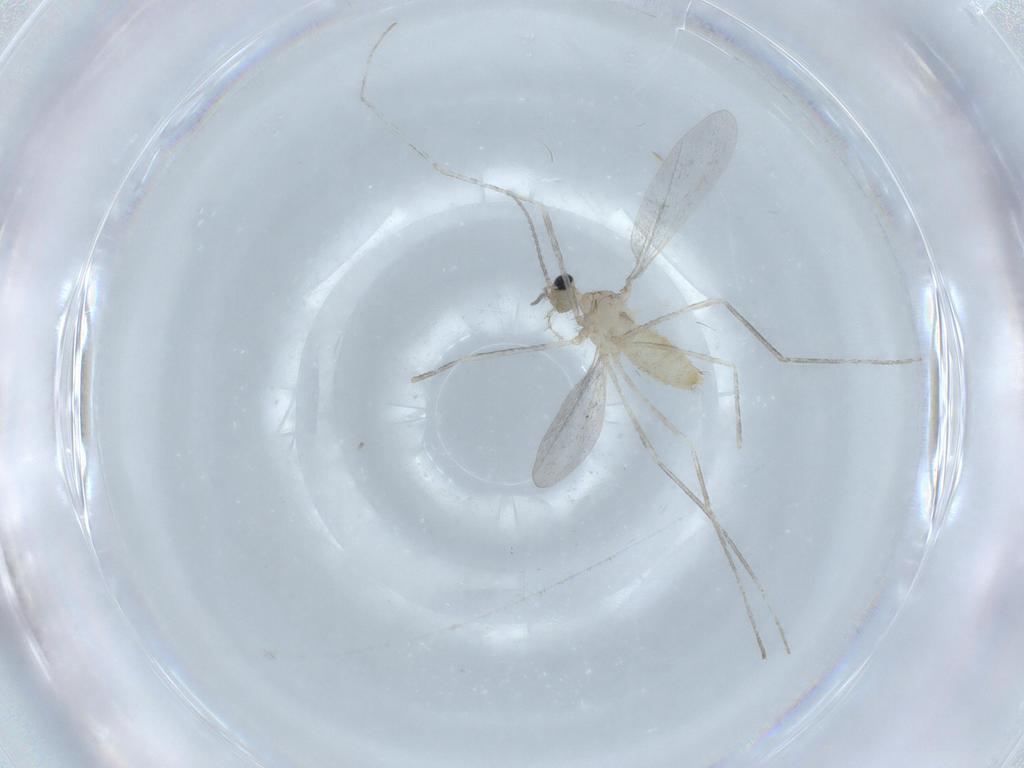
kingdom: Animalia
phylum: Arthropoda
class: Insecta
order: Diptera
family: Cecidomyiidae
